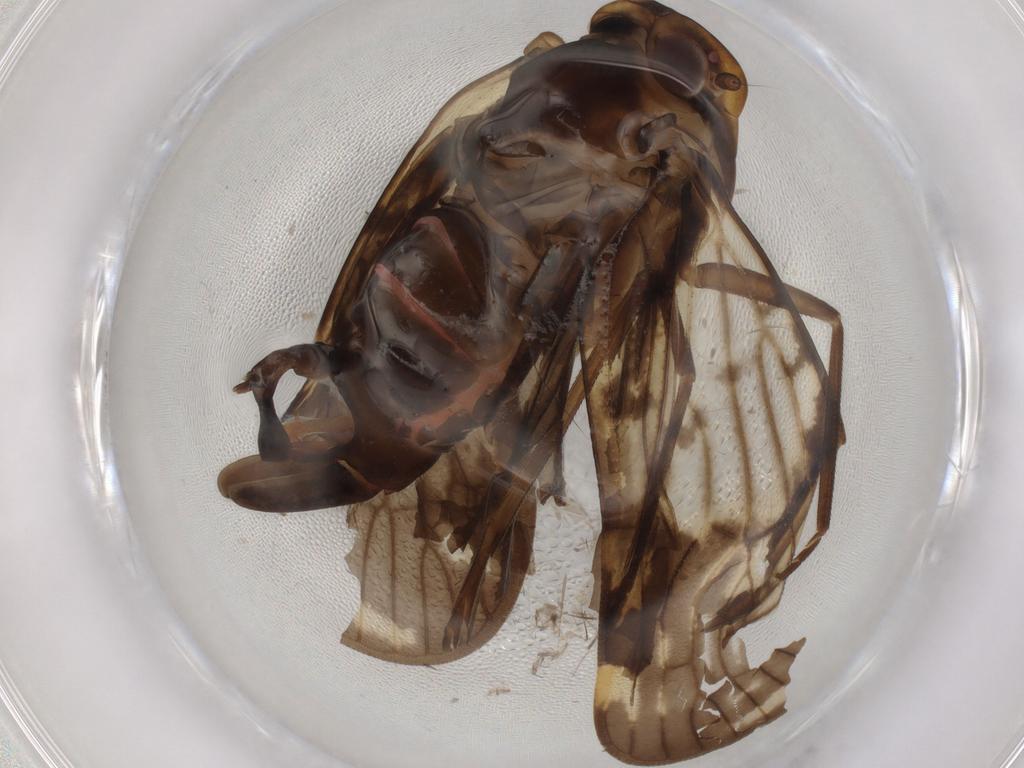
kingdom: Animalia
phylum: Arthropoda
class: Insecta
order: Hemiptera
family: Cixiidae
